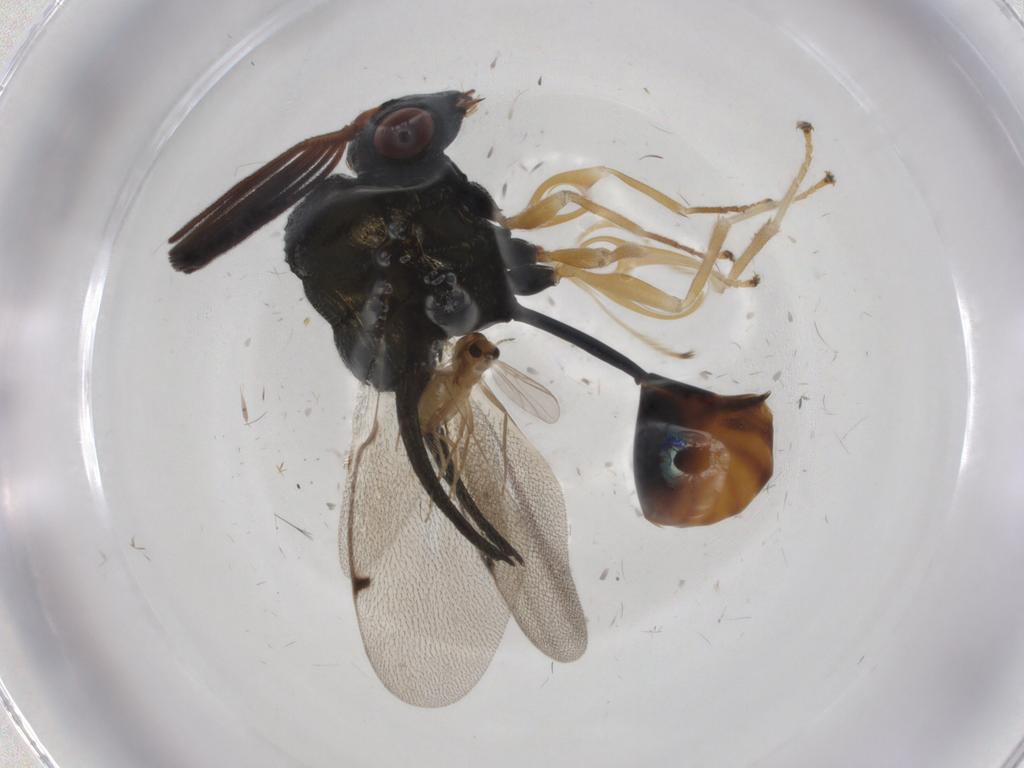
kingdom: Animalia
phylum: Arthropoda
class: Insecta
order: Diptera
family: Chironomidae
